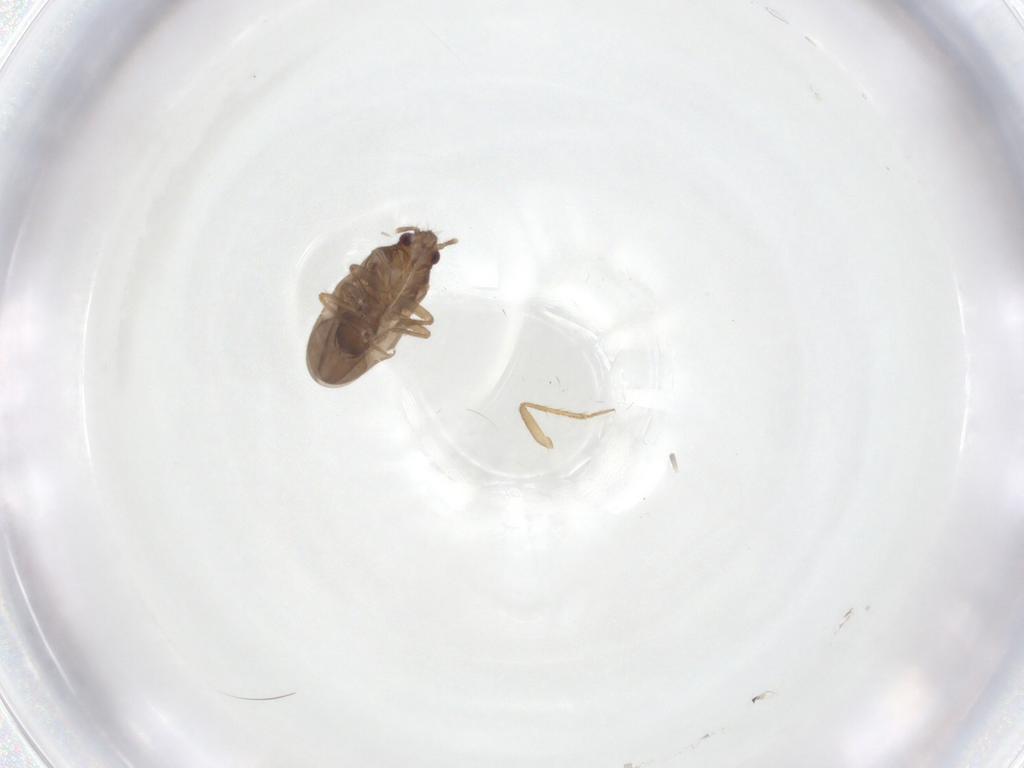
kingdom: Animalia
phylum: Arthropoda
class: Insecta
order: Hemiptera
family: Ceratocombidae
